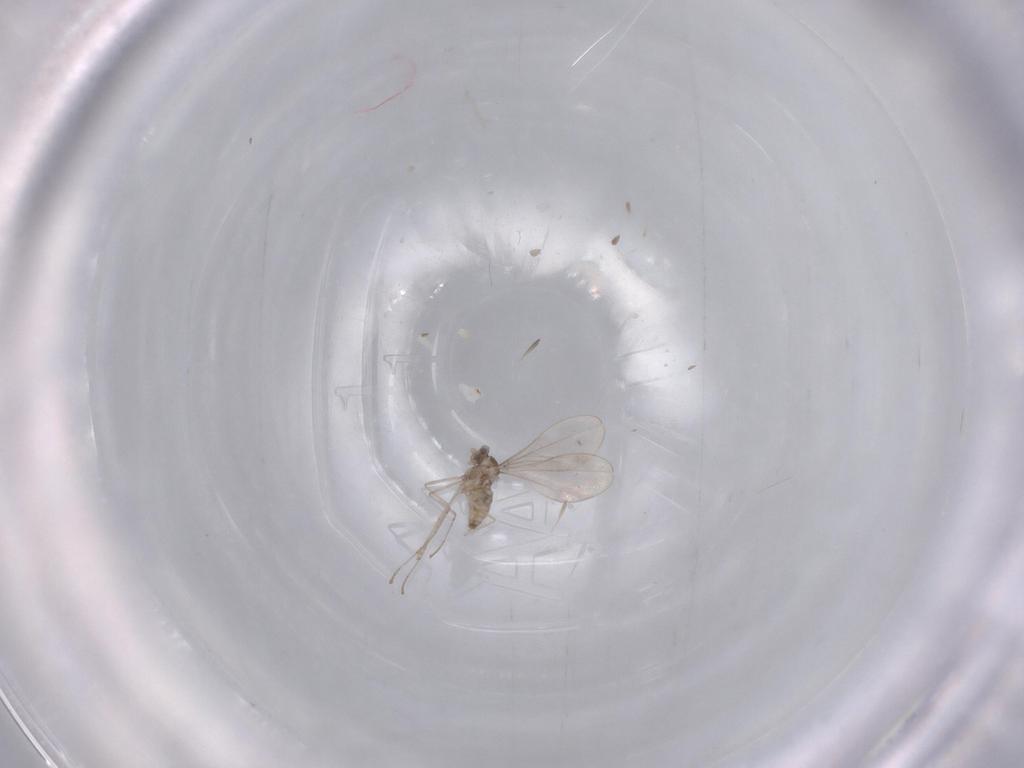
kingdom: Animalia
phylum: Arthropoda
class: Insecta
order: Diptera
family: Cecidomyiidae
